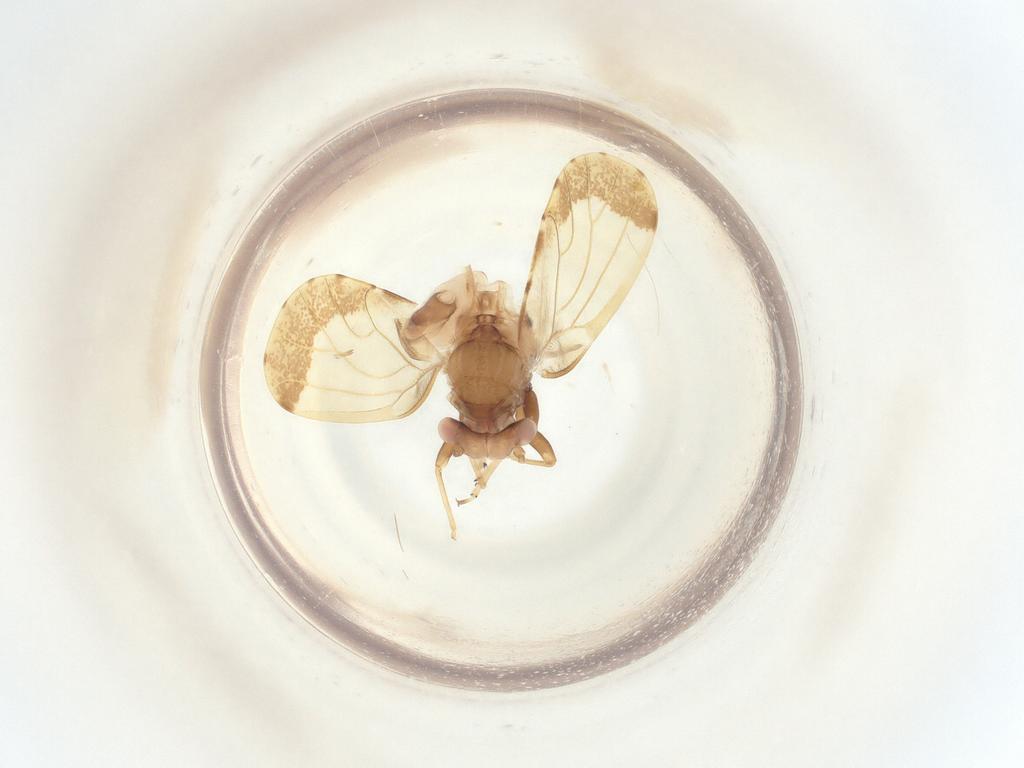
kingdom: Animalia
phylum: Arthropoda
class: Insecta
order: Hymenoptera
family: Chrysididae
